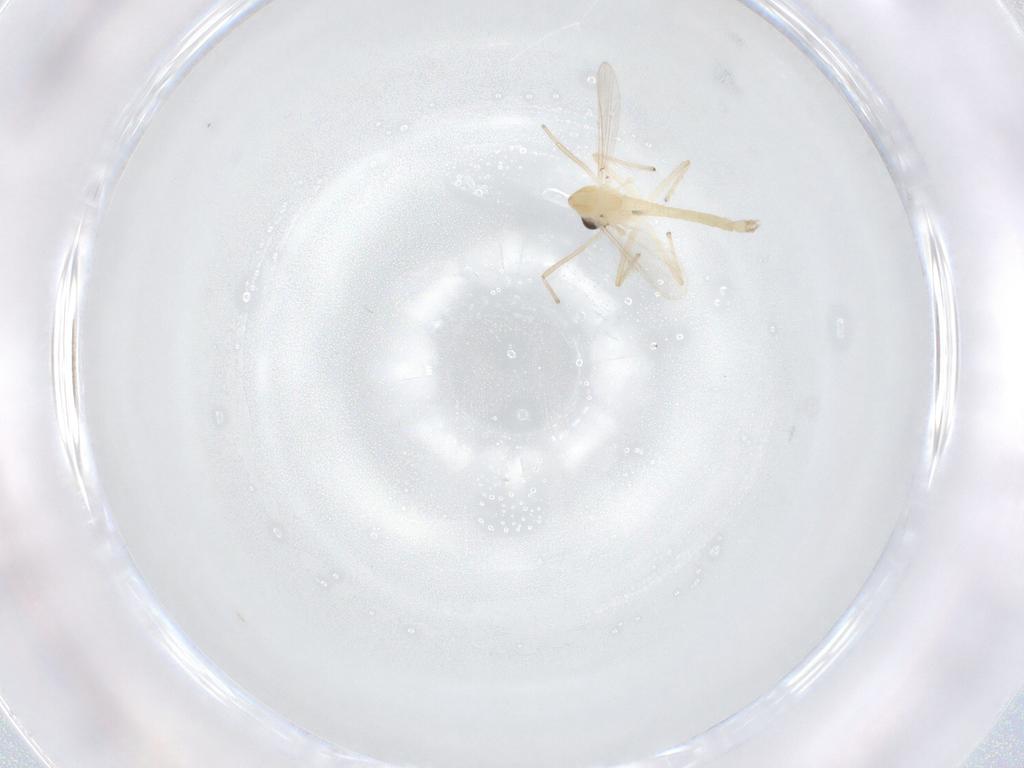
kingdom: Animalia
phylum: Arthropoda
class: Insecta
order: Diptera
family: Chironomidae
